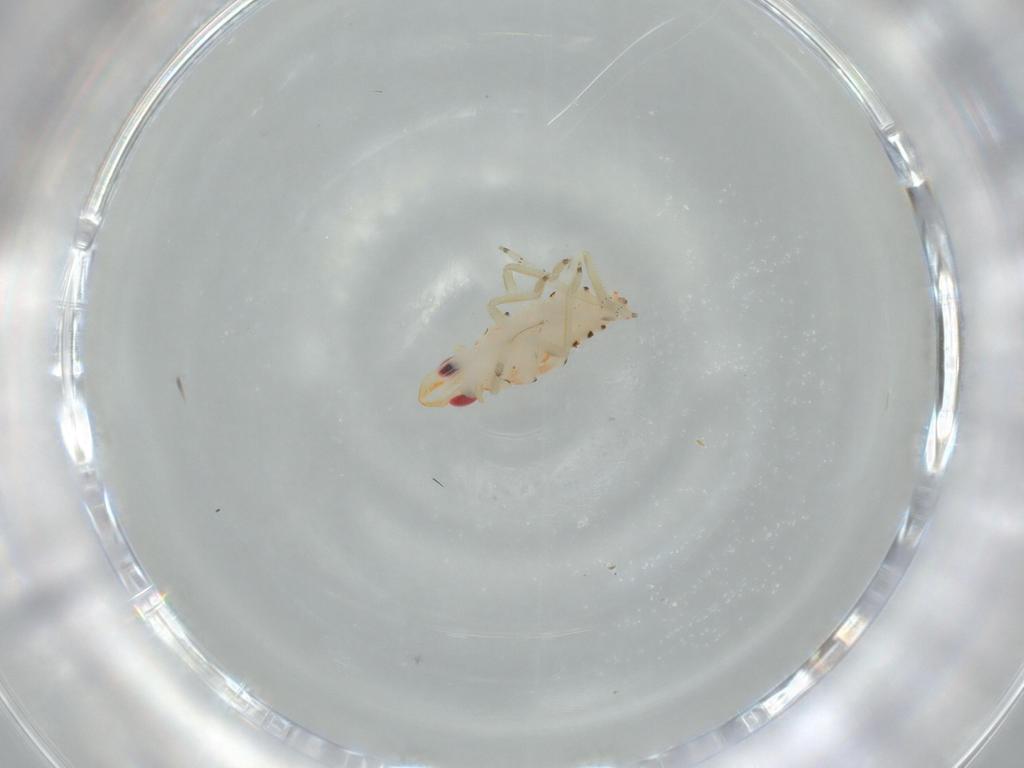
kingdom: Animalia
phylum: Arthropoda
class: Insecta
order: Hemiptera
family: Tropiduchidae
